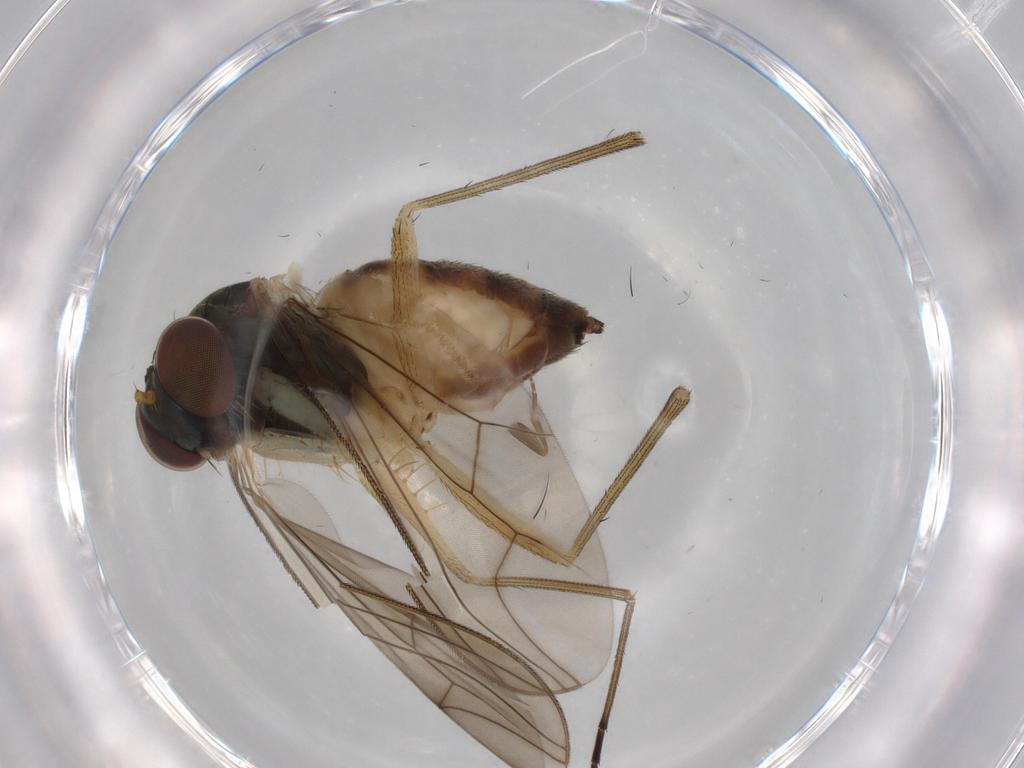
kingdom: Animalia
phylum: Arthropoda
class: Insecta
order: Diptera
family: Dolichopodidae
